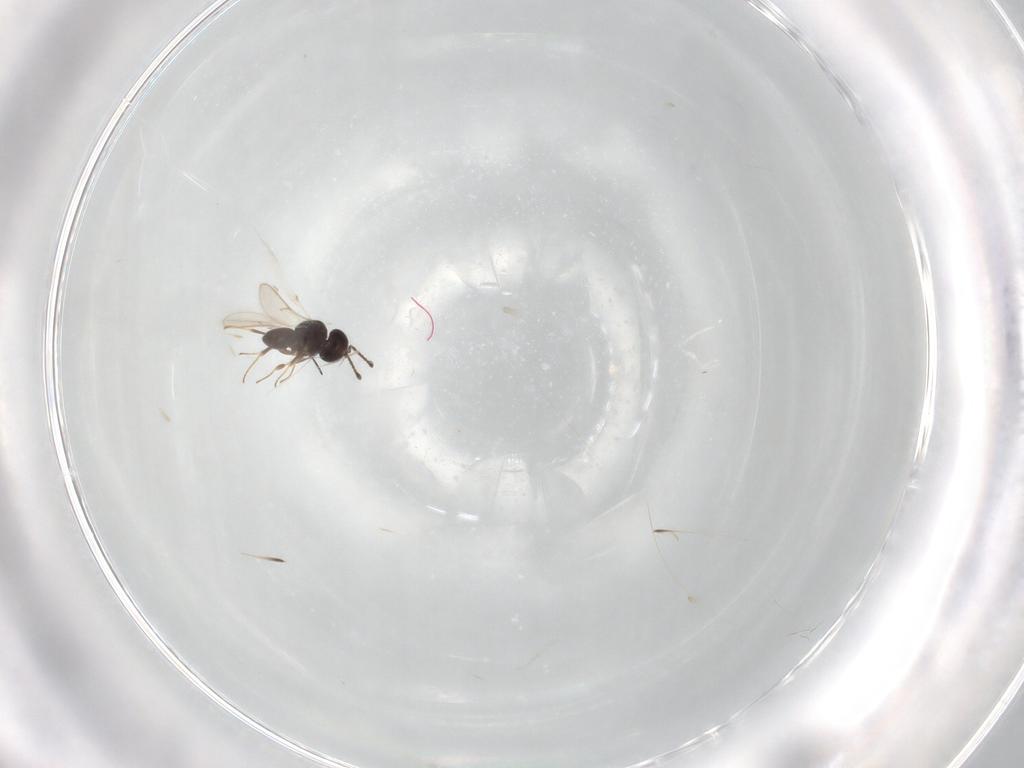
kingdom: Animalia
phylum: Arthropoda
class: Insecta
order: Hymenoptera
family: Scelionidae
